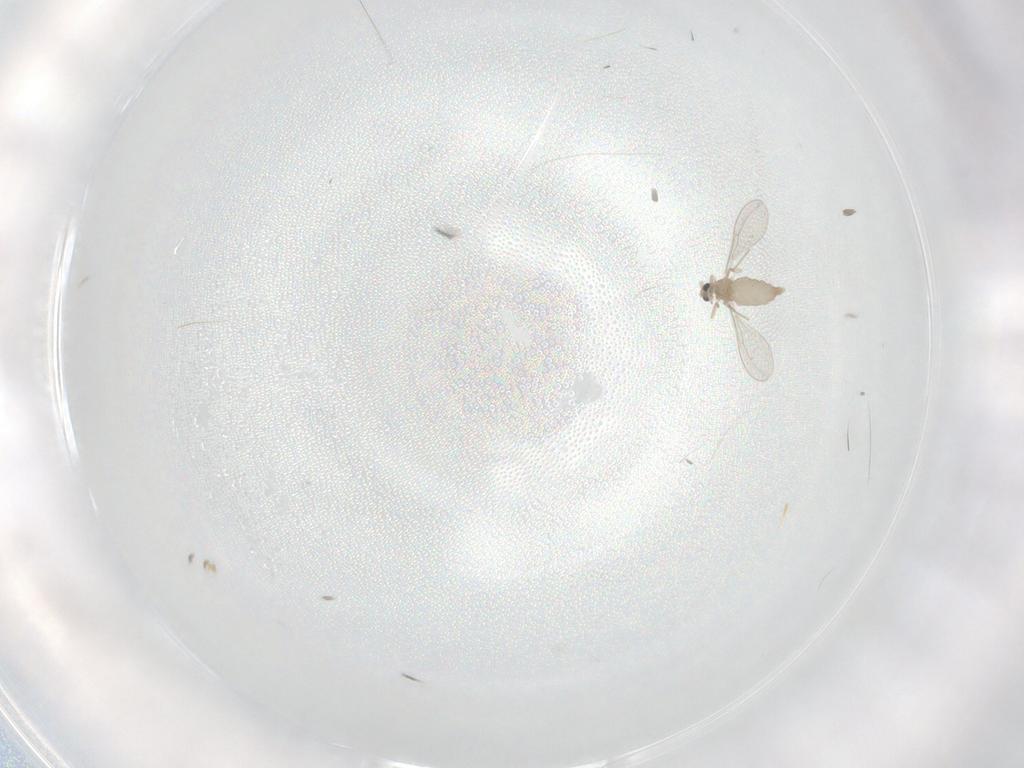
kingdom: Animalia
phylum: Arthropoda
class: Insecta
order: Diptera
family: Cecidomyiidae
